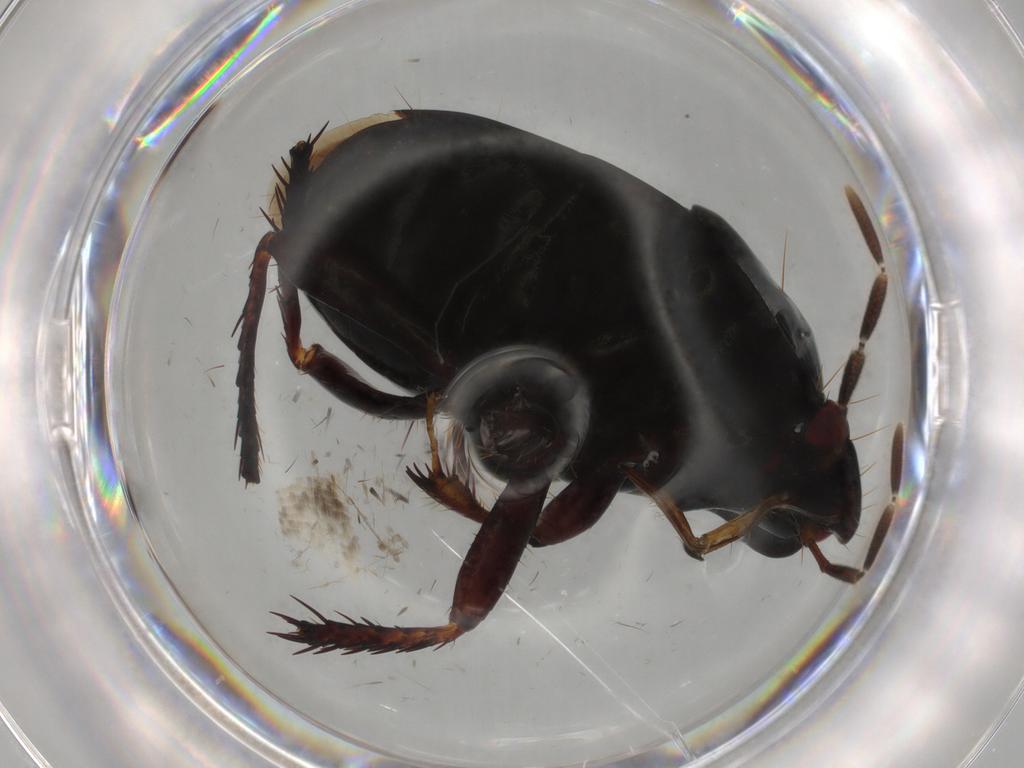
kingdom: Animalia
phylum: Arthropoda
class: Insecta
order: Hemiptera
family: Cydnidae
